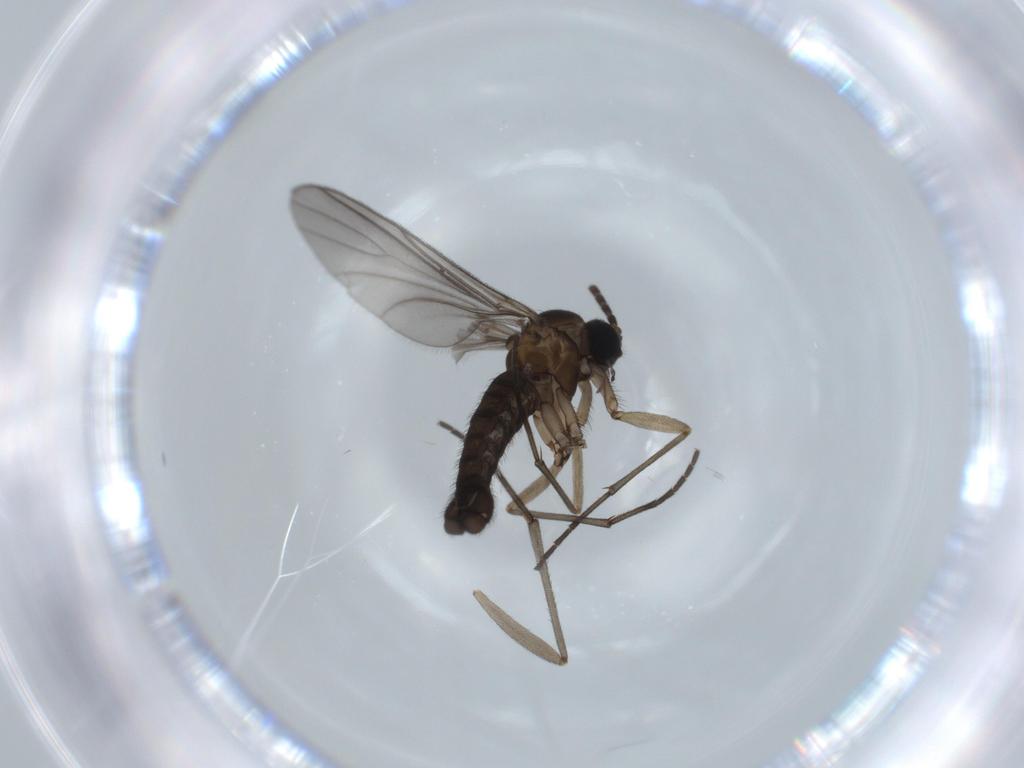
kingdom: Animalia
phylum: Arthropoda
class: Insecta
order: Diptera
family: Sciaridae
